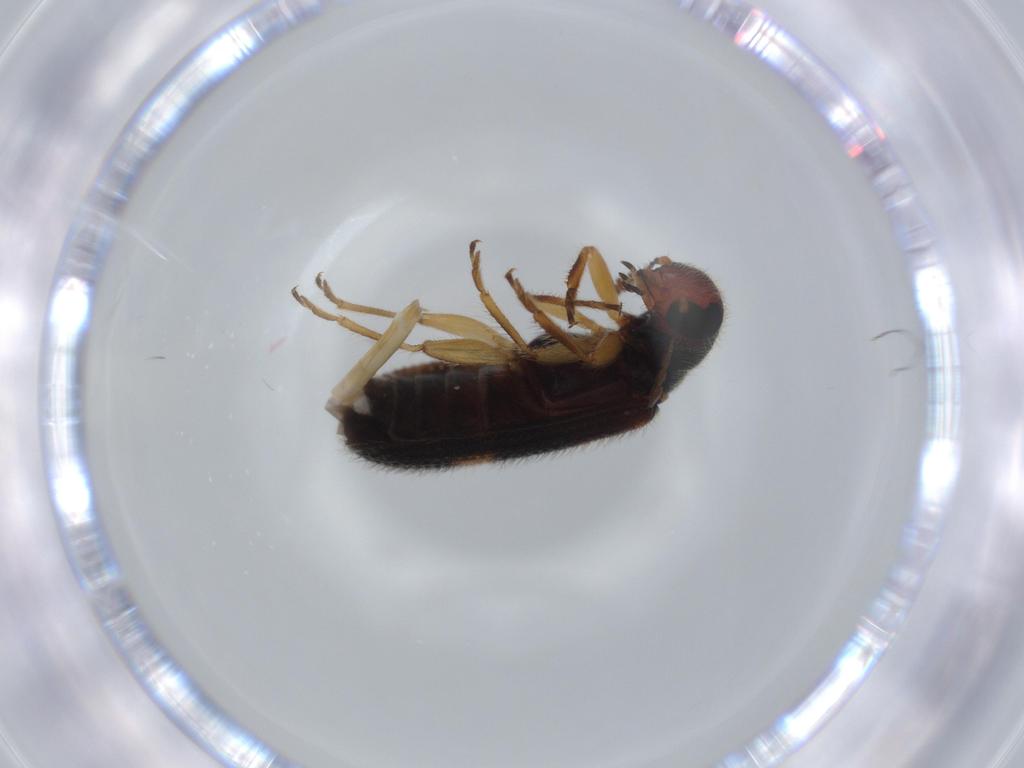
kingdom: Animalia
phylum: Arthropoda
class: Insecta
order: Coleoptera
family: Cleridae
